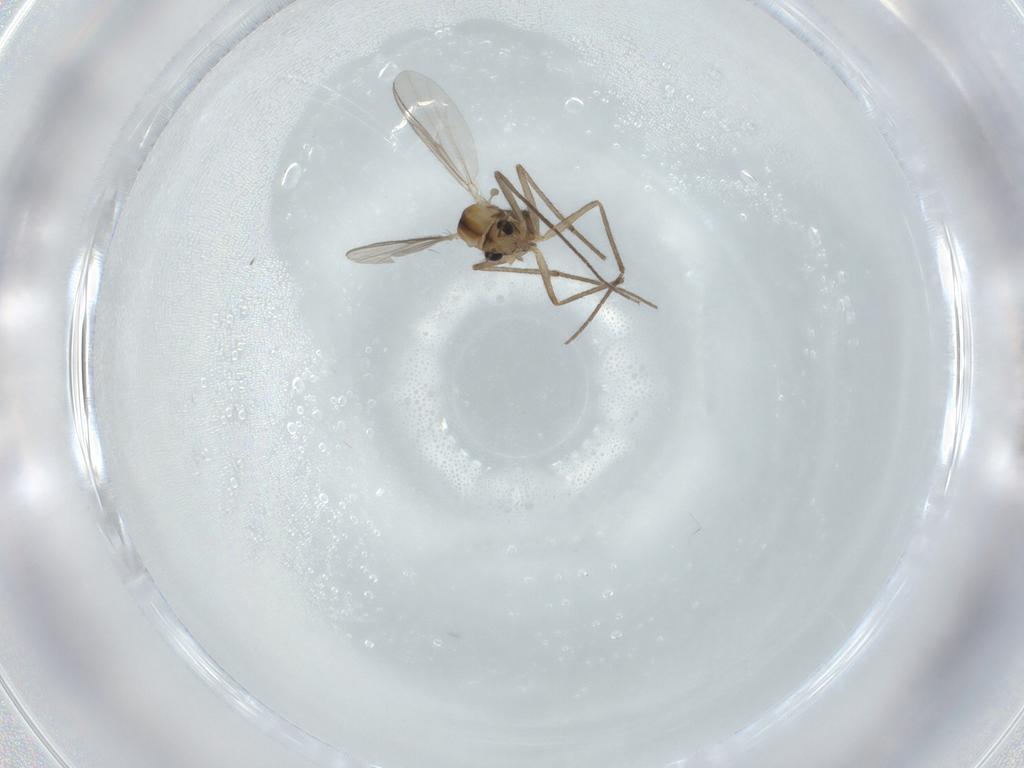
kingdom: Animalia
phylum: Arthropoda
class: Insecta
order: Diptera
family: Chironomidae
